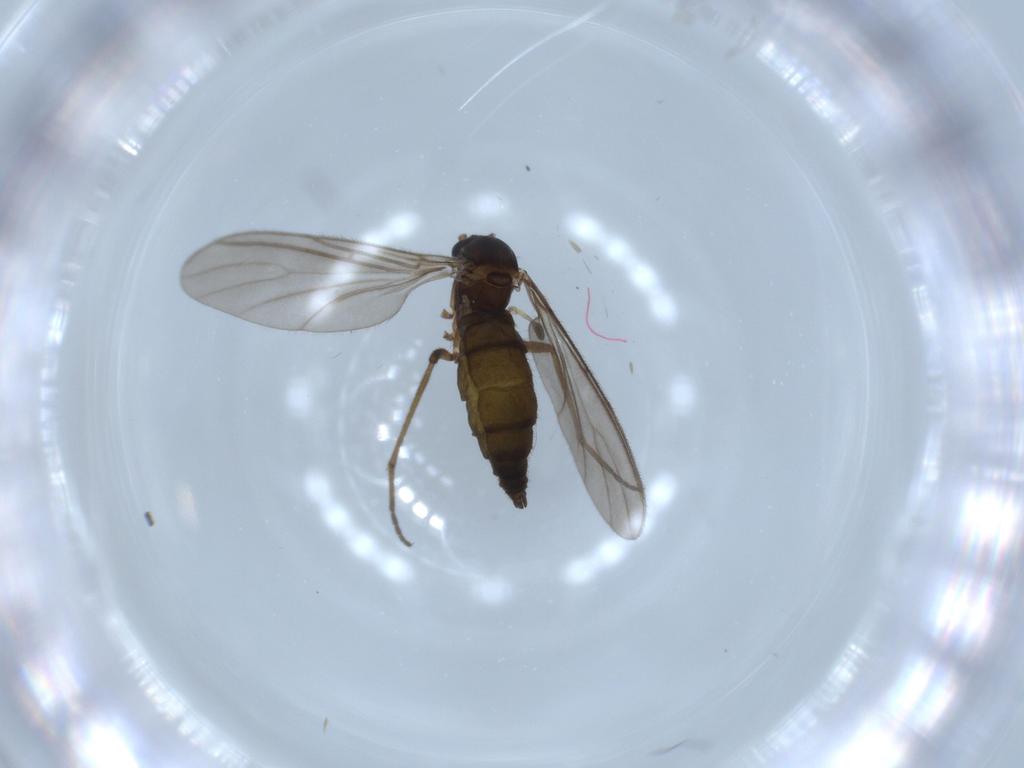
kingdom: Animalia
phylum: Arthropoda
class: Insecta
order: Diptera
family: Sciaridae
